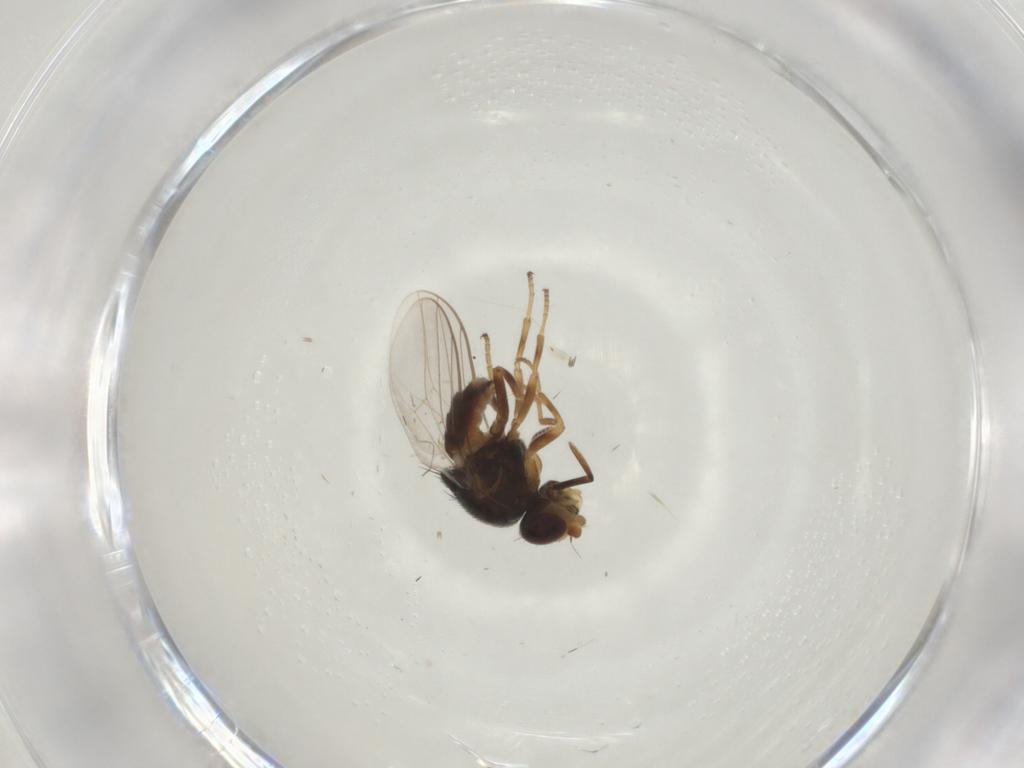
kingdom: Animalia
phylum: Arthropoda
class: Insecta
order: Diptera
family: Chloropidae
